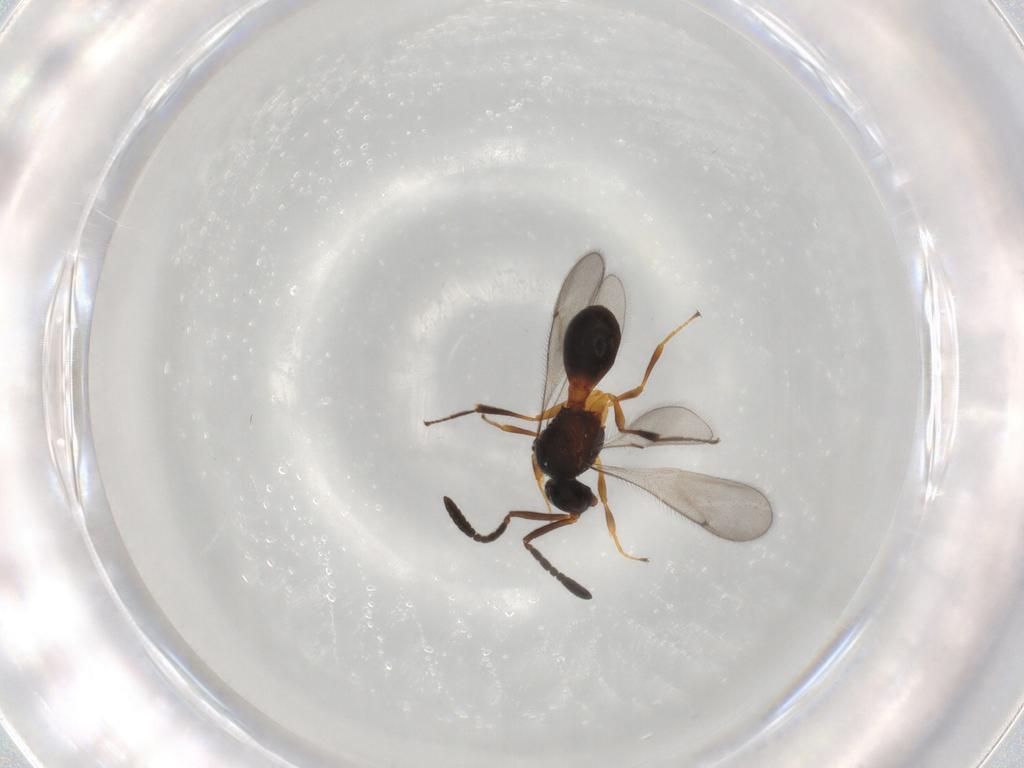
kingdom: Animalia
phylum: Arthropoda
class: Insecta
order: Hymenoptera
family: Scelionidae
